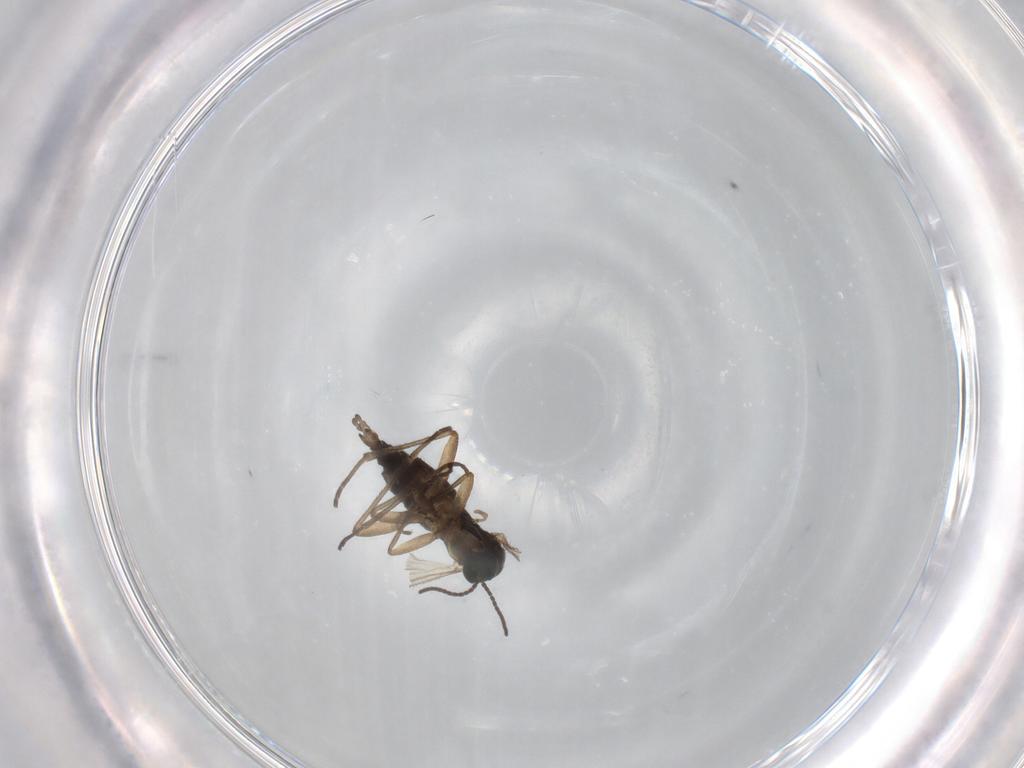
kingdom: Animalia
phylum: Arthropoda
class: Insecta
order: Diptera
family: Sciaridae
